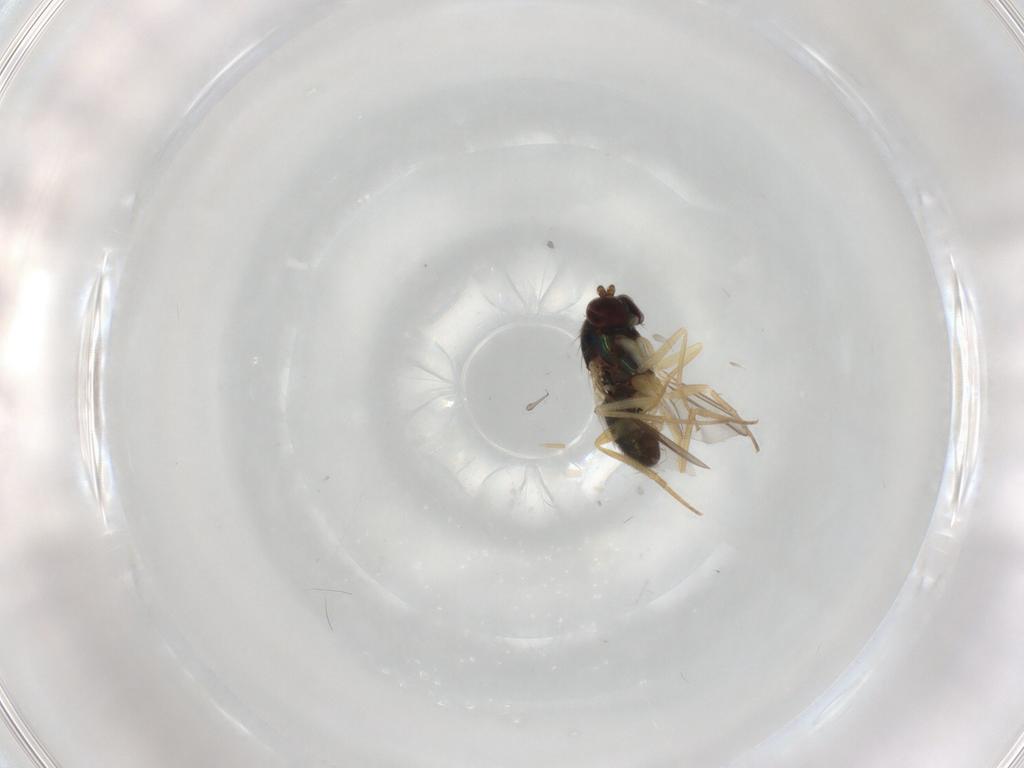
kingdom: Animalia
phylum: Arthropoda
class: Insecta
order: Diptera
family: Dolichopodidae
